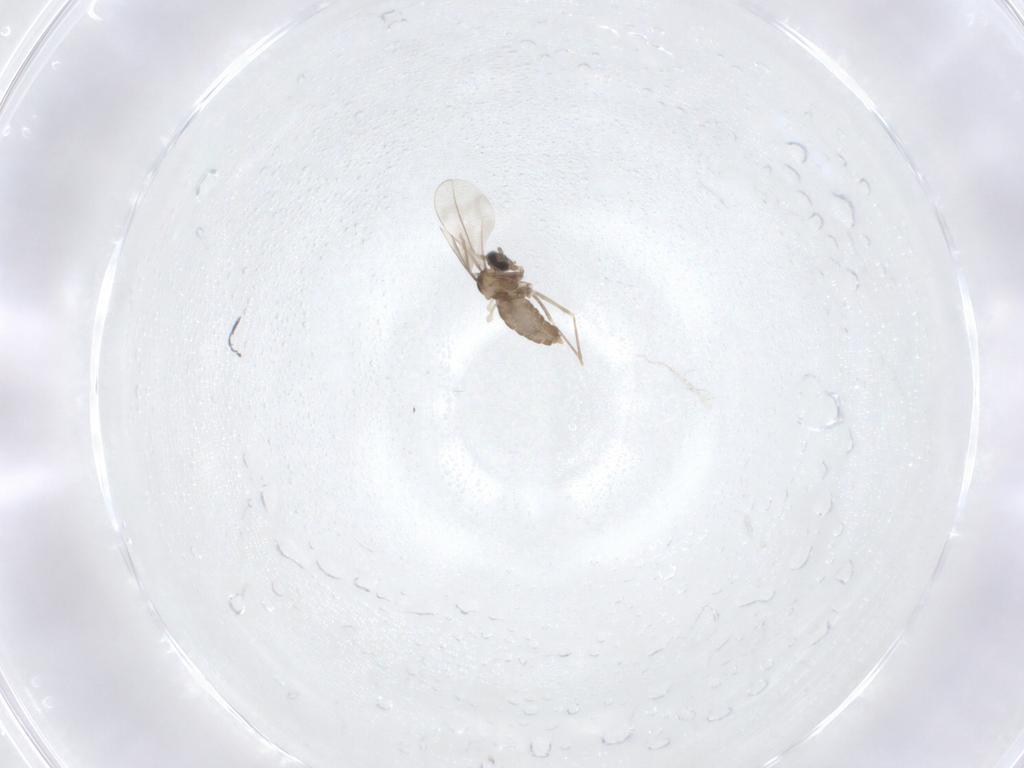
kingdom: Animalia
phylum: Arthropoda
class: Insecta
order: Diptera
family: Cecidomyiidae
